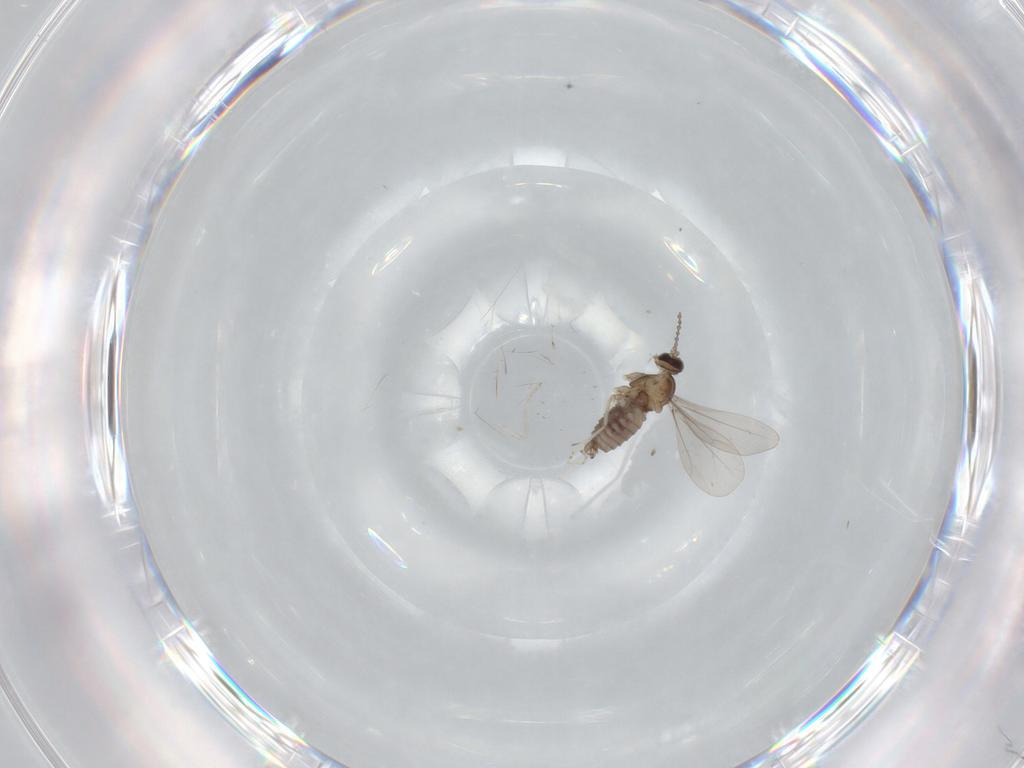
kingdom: Animalia
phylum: Arthropoda
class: Insecta
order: Diptera
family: Cecidomyiidae
